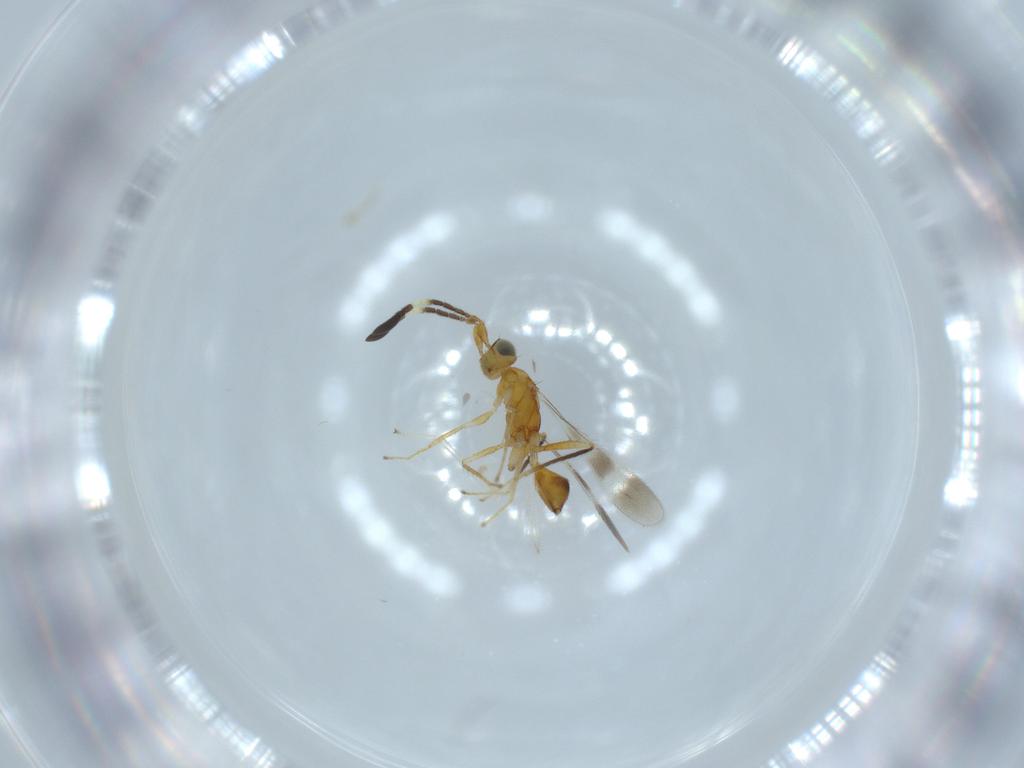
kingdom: Animalia
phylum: Arthropoda
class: Insecta
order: Hymenoptera
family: Mymaridae
